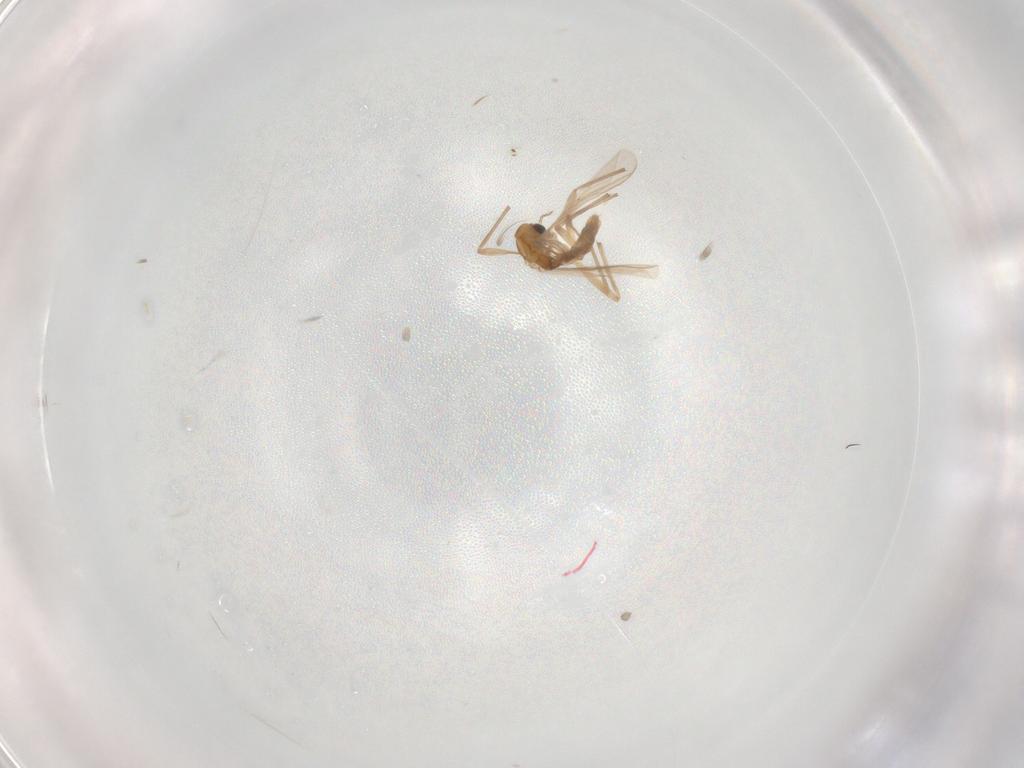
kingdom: Animalia
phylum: Arthropoda
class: Insecta
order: Diptera
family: Chironomidae
